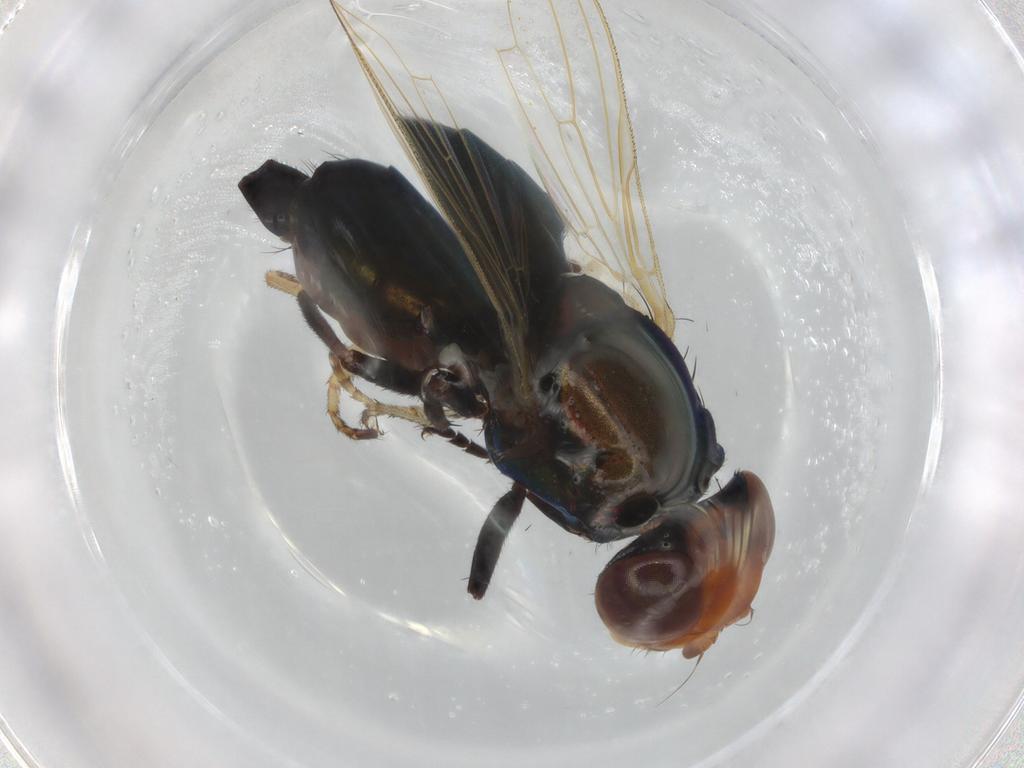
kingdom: Animalia
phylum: Arthropoda
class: Insecta
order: Diptera
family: Ulidiidae
